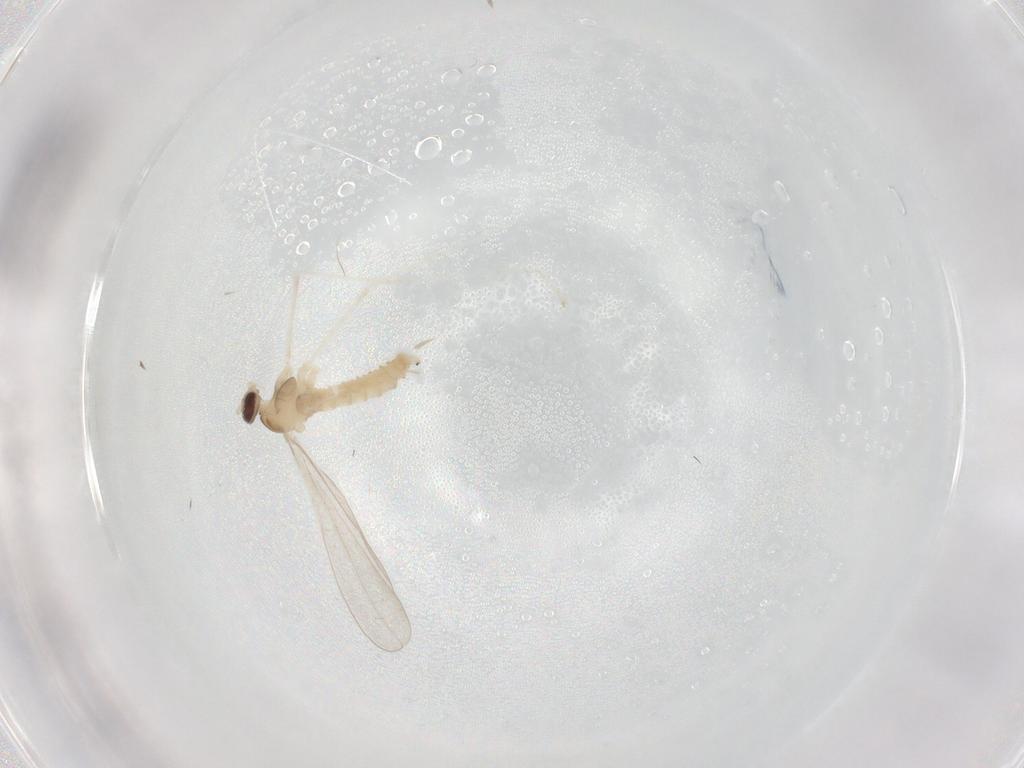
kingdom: Animalia
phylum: Arthropoda
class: Insecta
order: Diptera
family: Cecidomyiidae
